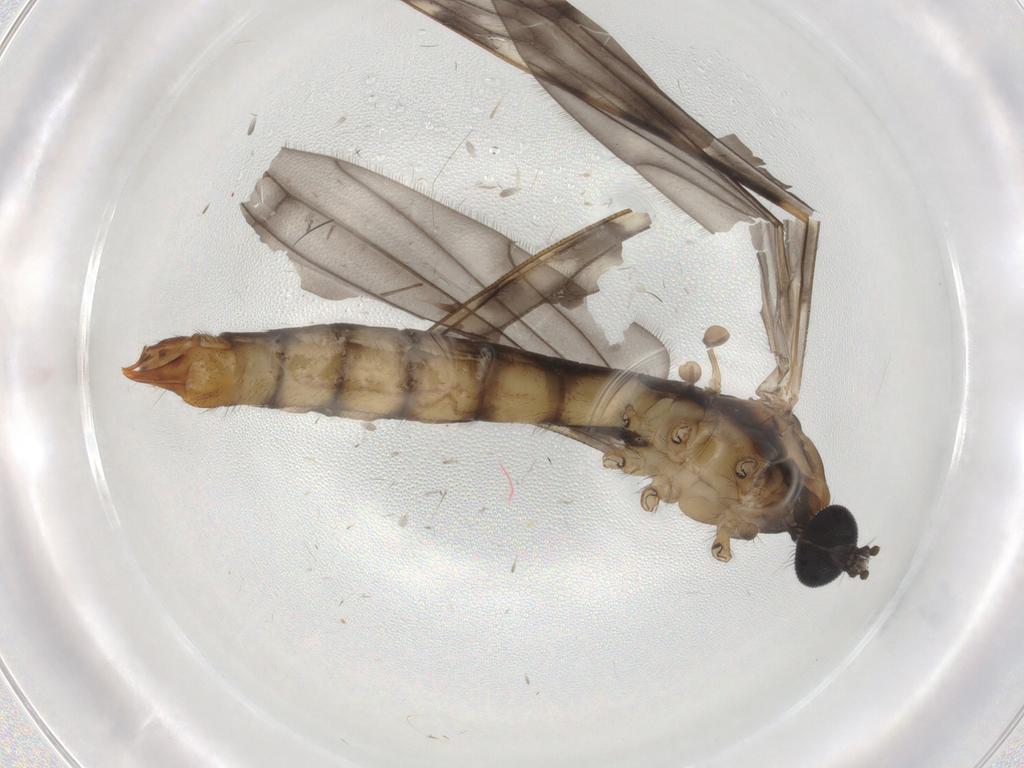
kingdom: Animalia
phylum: Arthropoda
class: Insecta
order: Diptera
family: Limoniidae
